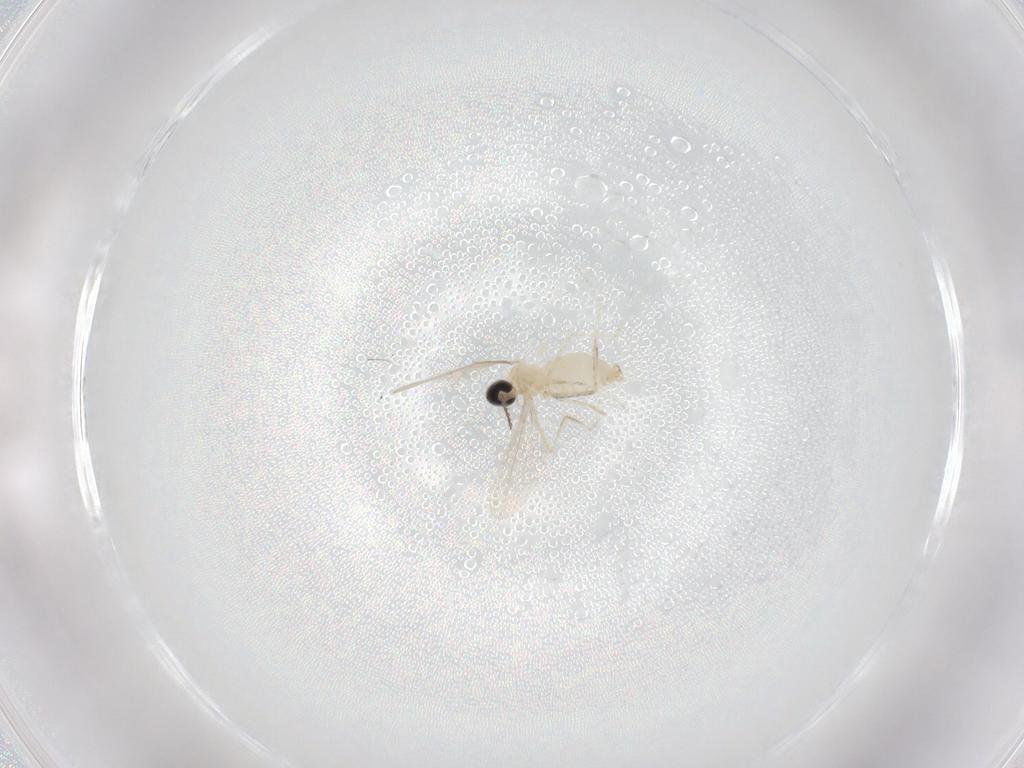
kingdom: Animalia
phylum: Arthropoda
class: Insecta
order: Diptera
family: Cecidomyiidae
